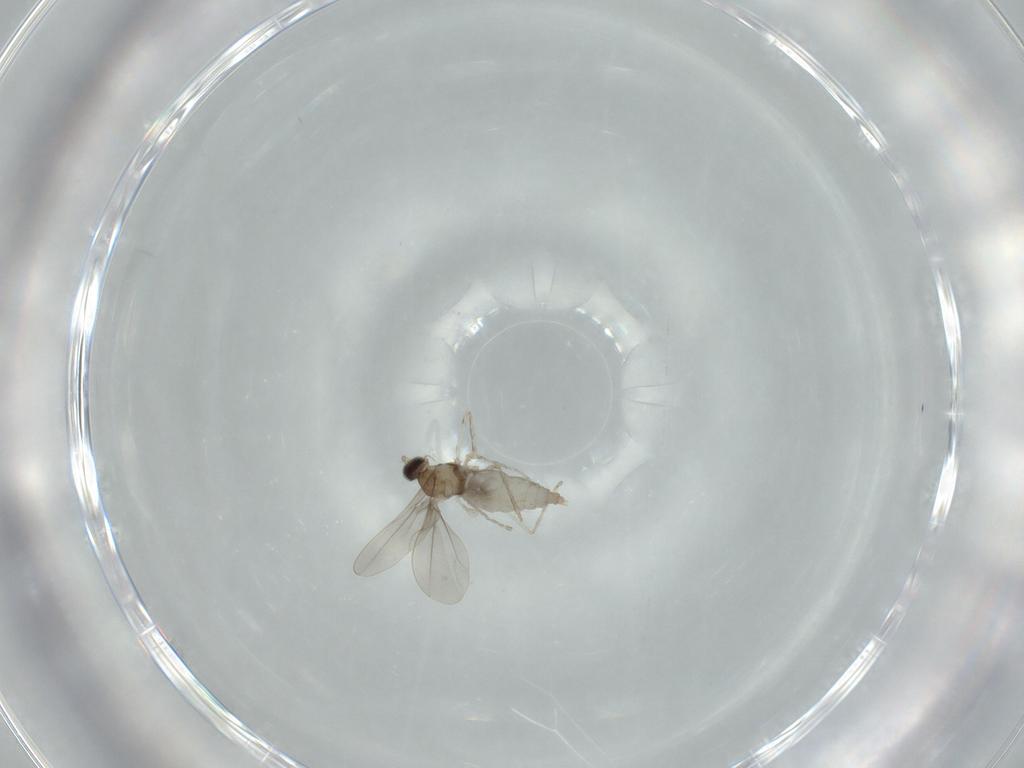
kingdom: Animalia
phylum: Arthropoda
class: Insecta
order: Diptera
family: Cecidomyiidae
